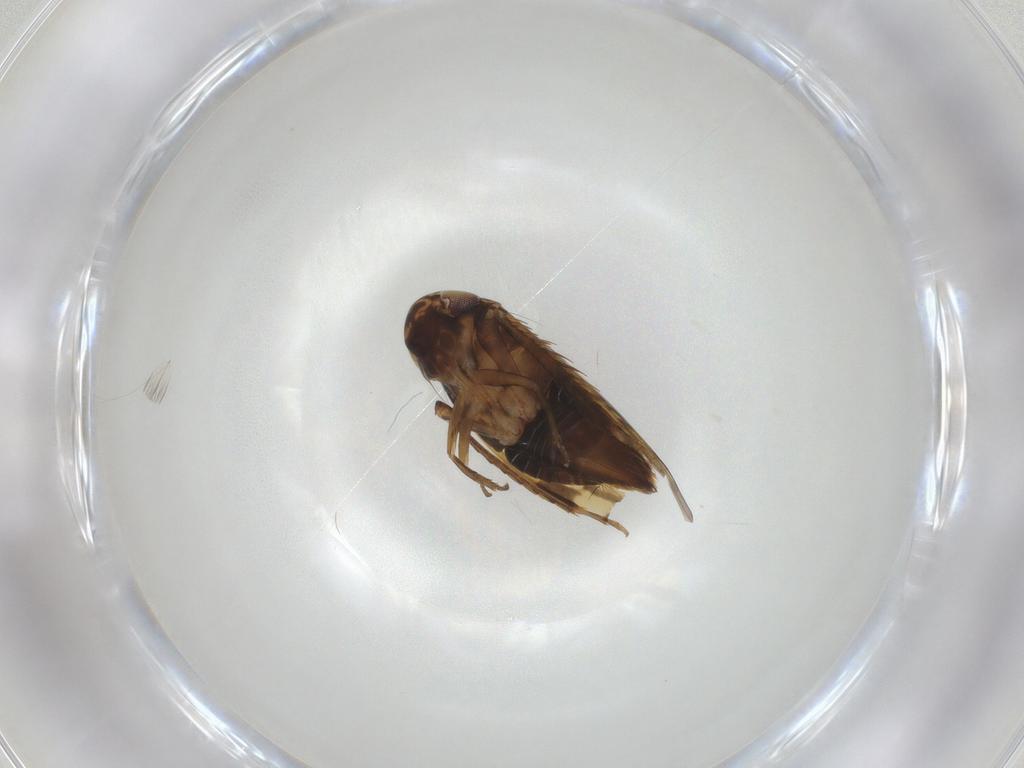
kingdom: Animalia
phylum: Arthropoda
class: Insecta
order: Hemiptera
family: Cicadellidae
